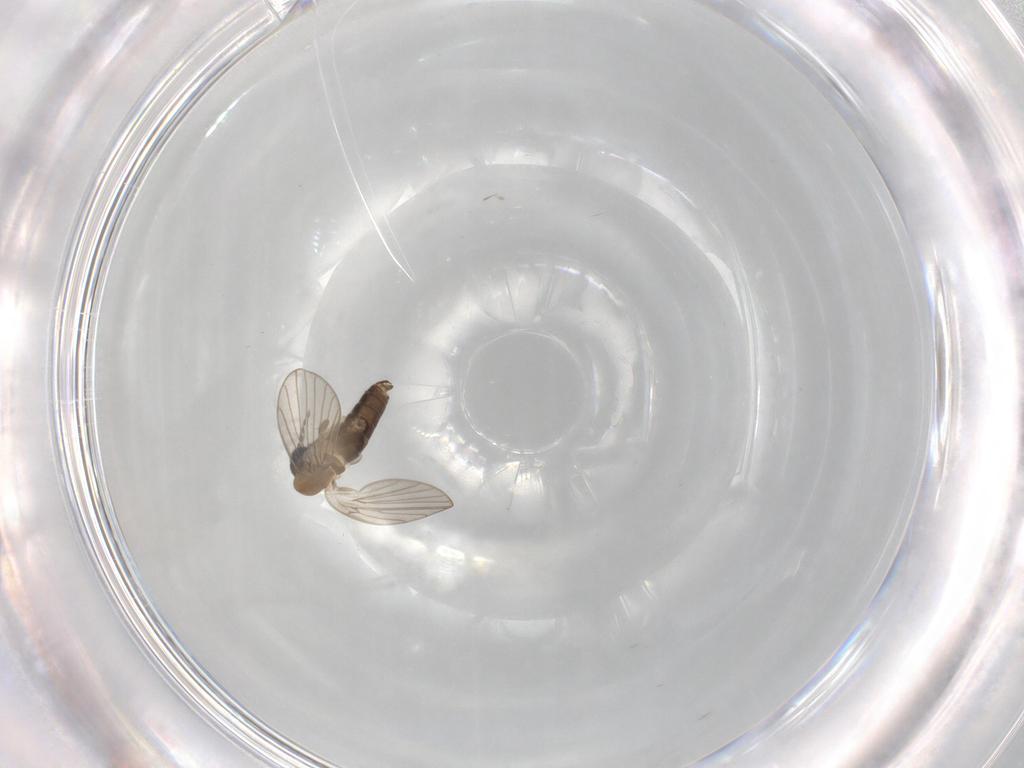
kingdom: Animalia
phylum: Arthropoda
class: Insecta
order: Diptera
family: Psychodidae
